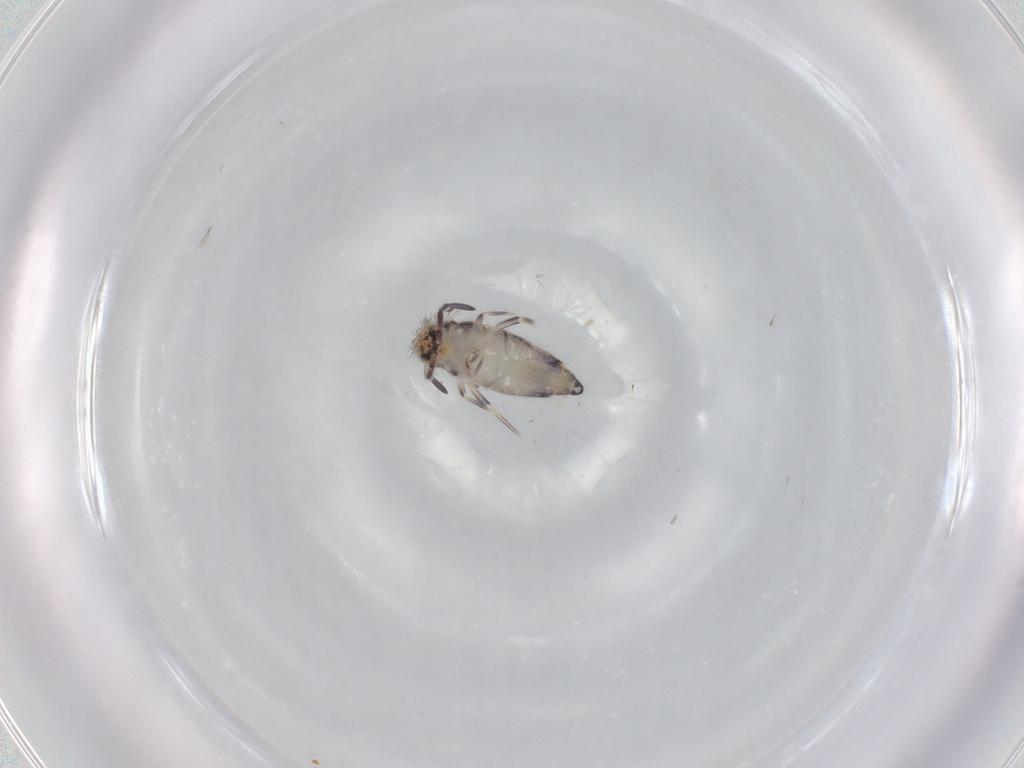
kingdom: Animalia
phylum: Arthropoda
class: Collembola
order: Entomobryomorpha
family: Entomobryidae
